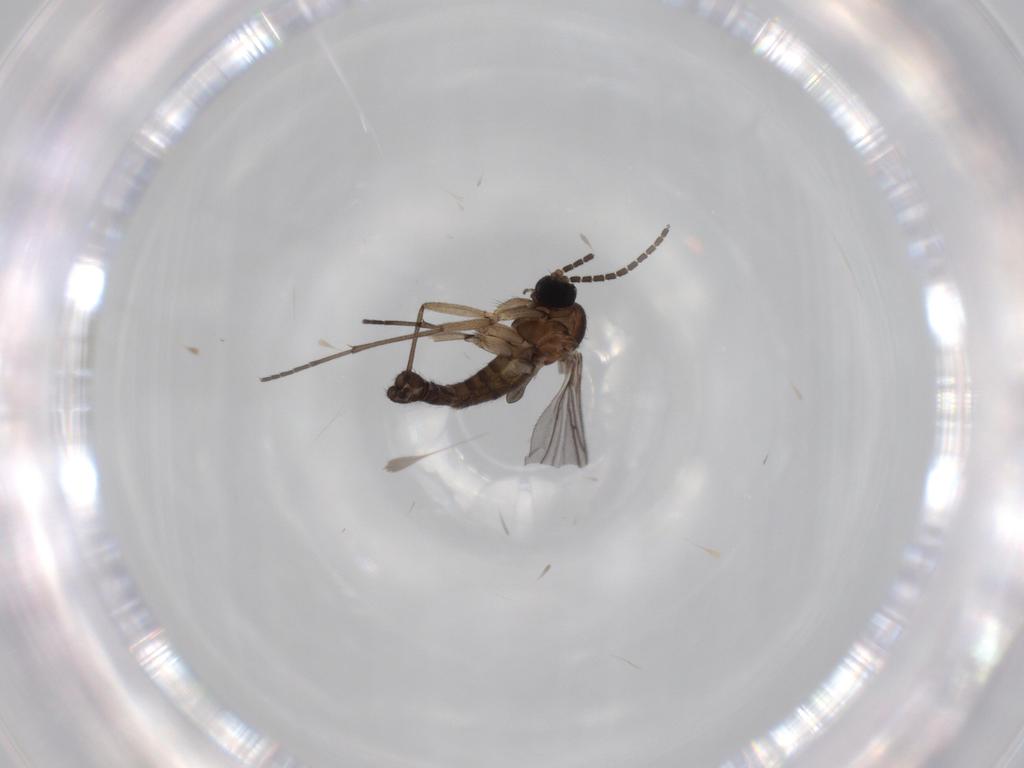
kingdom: Animalia
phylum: Arthropoda
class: Insecta
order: Diptera
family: Sciaridae
